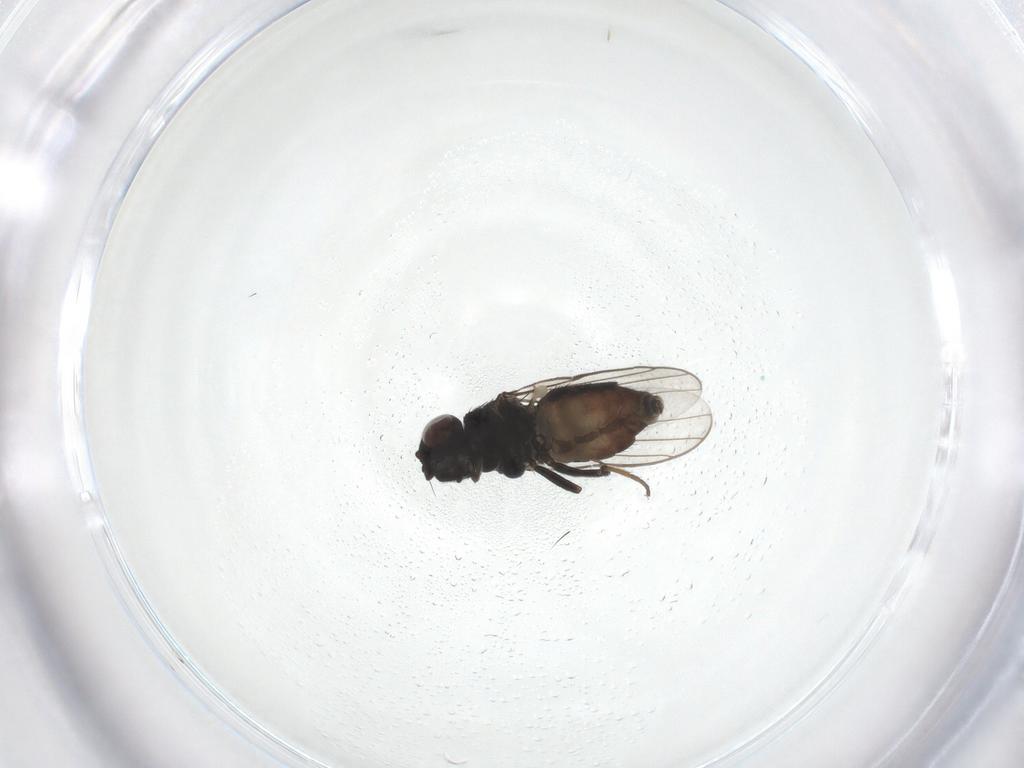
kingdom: Animalia
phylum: Arthropoda
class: Insecta
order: Diptera
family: Chloropidae
